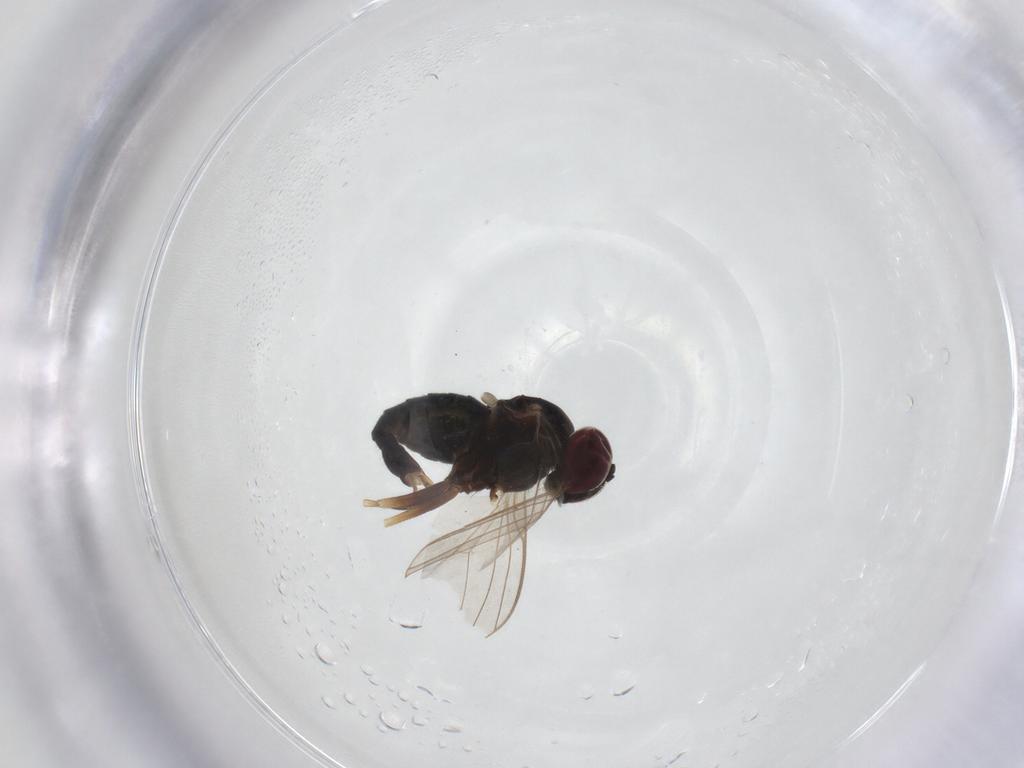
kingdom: Animalia
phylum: Arthropoda
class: Insecta
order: Diptera
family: Dolichopodidae
